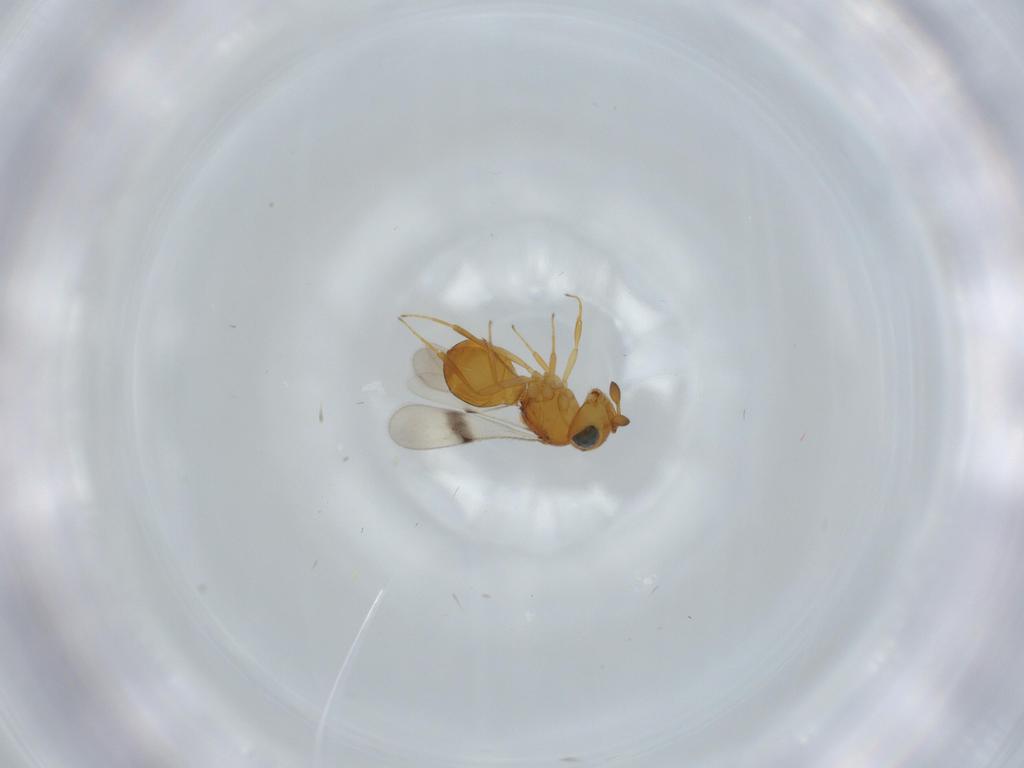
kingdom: Animalia
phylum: Arthropoda
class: Insecta
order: Hymenoptera
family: Scelionidae
